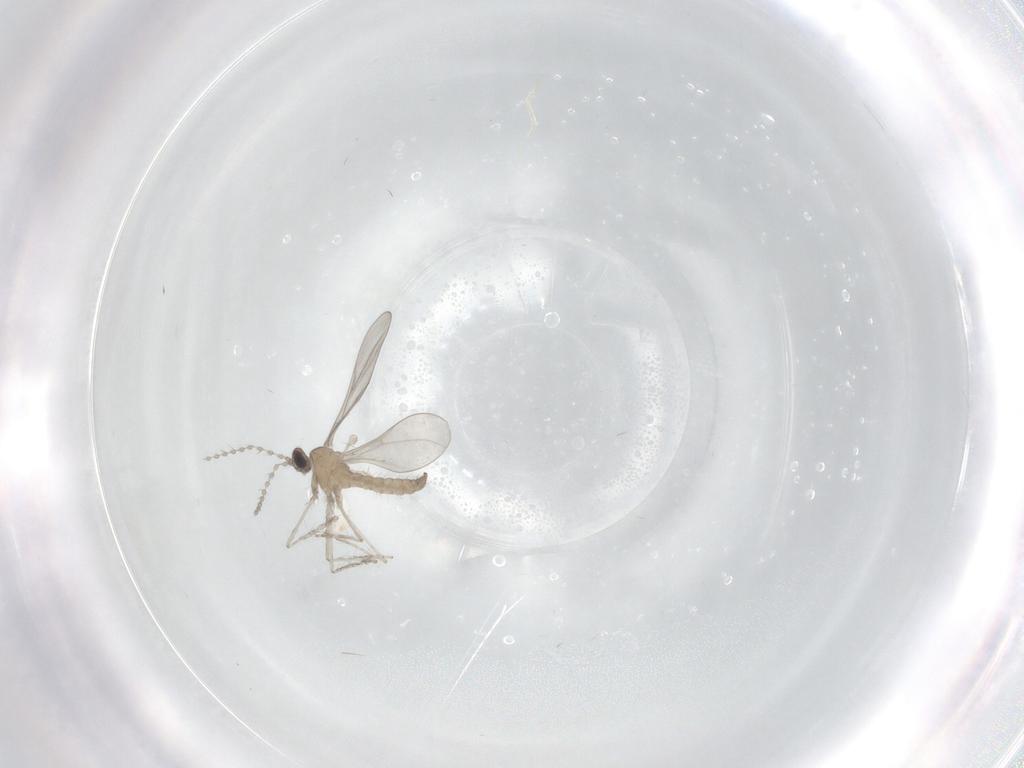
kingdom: Animalia
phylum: Arthropoda
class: Insecta
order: Diptera
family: Cecidomyiidae
